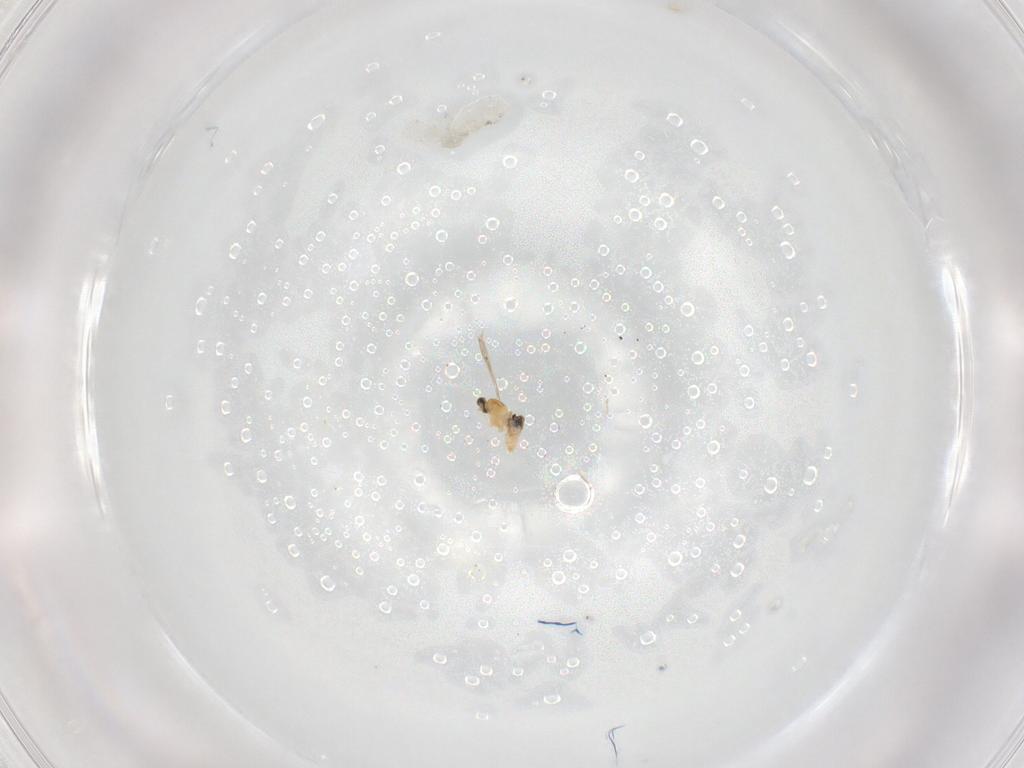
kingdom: Animalia
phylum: Arthropoda
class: Insecta
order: Diptera
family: Cecidomyiidae
